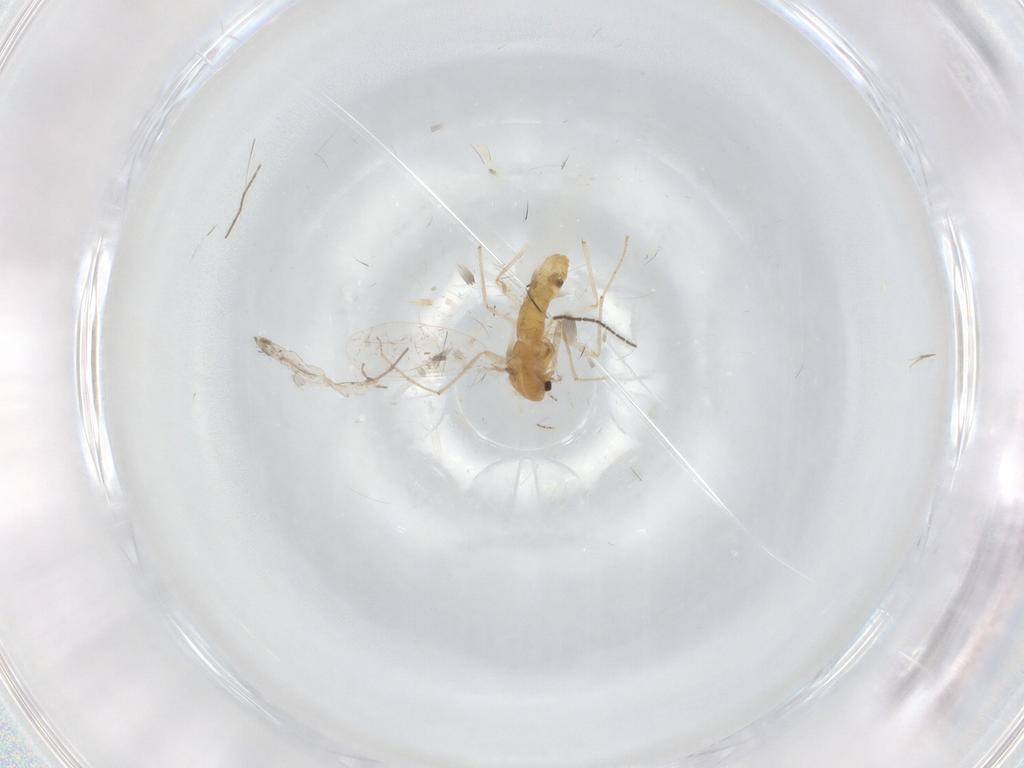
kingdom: Animalia
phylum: Arthropoda
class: Insecta
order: Diptera
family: Chironomidae
